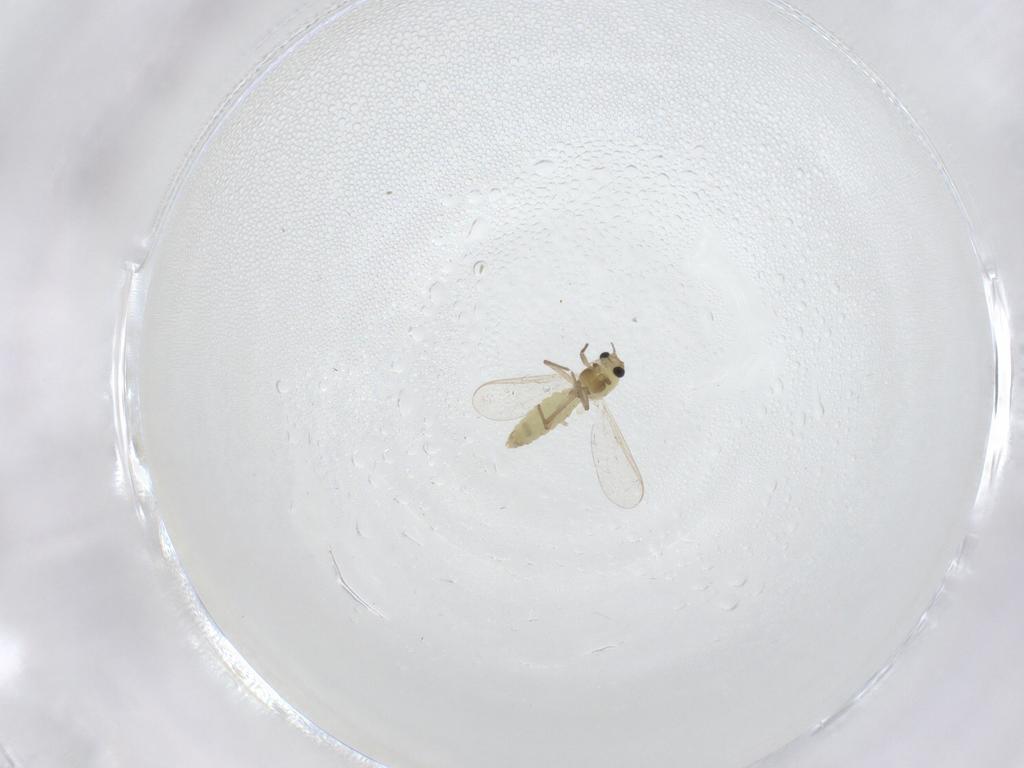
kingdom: Animalia
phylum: Arthropoda
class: Insecta
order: Diptera
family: Chironomidae
